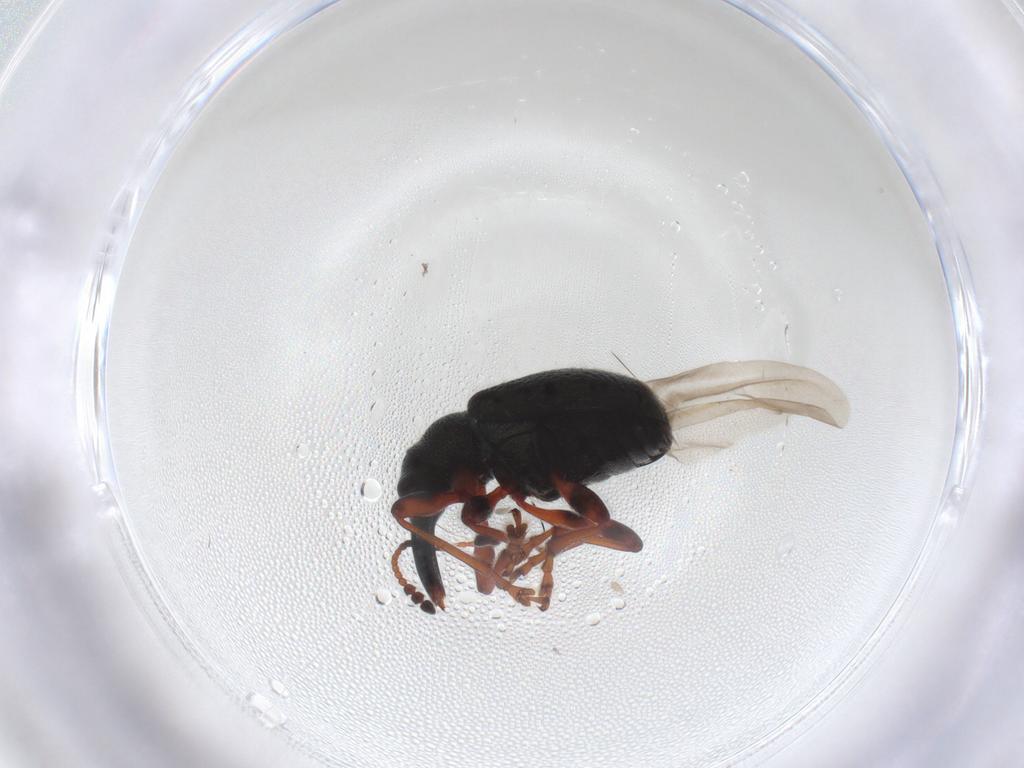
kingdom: Animalia
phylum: Arthropoda
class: Insecta
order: Coleoptera
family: Attelabidae
